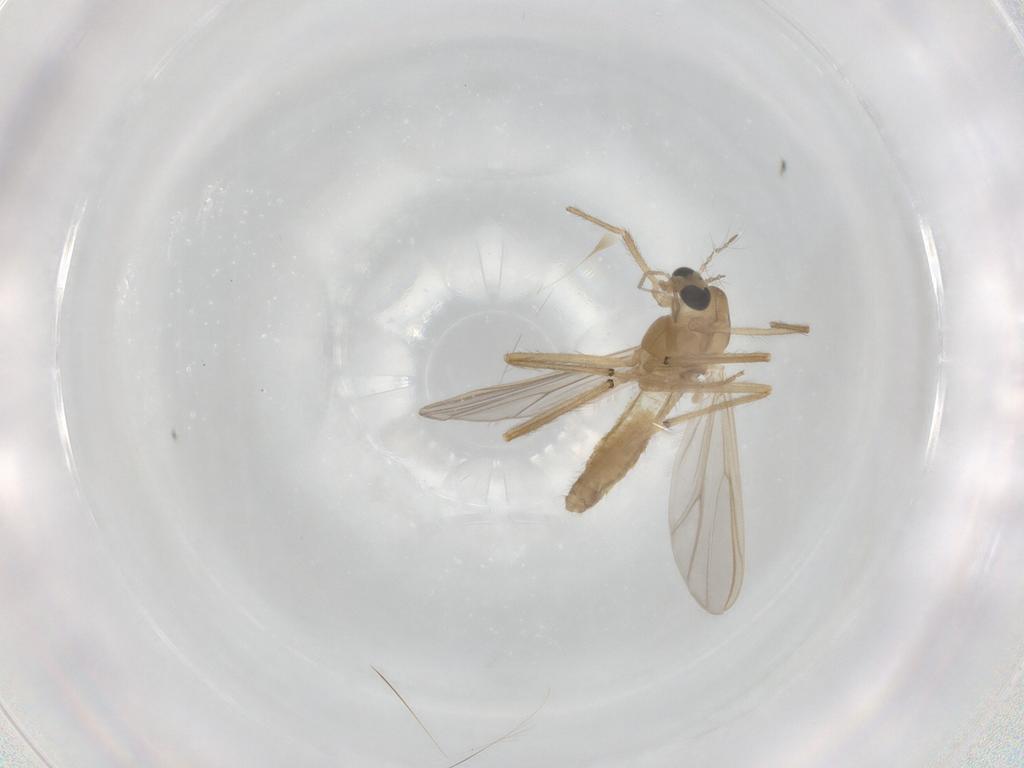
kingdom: Animalia
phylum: Arthropoda
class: Insecta
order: Diptera
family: Chironomidae
